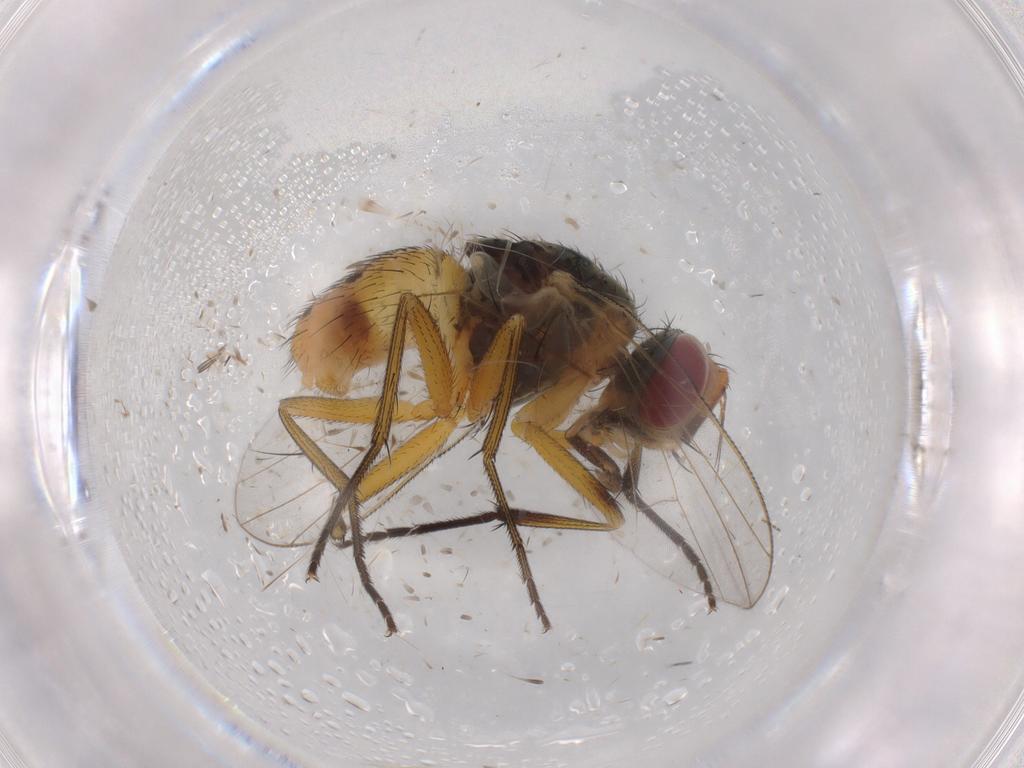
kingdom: Animalia
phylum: Arthropoda
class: Insecta
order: Diptera
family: Muscidae
